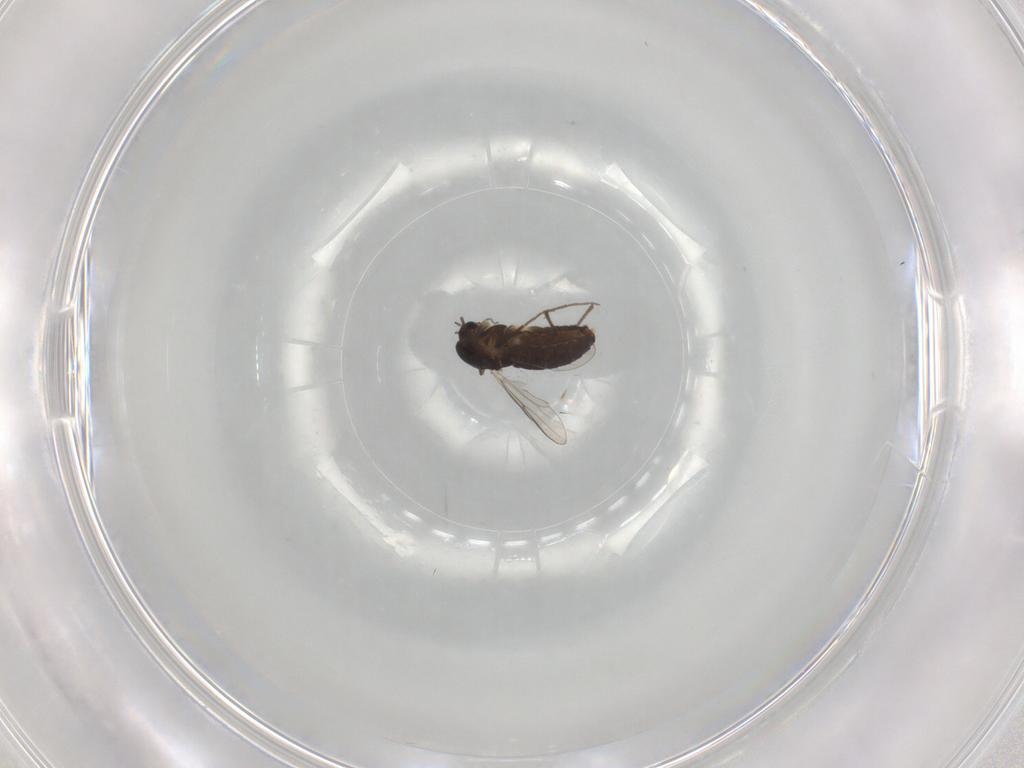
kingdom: Animalia
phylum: Arthropoda
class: Insecta
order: Diptera
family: Chironomidae
